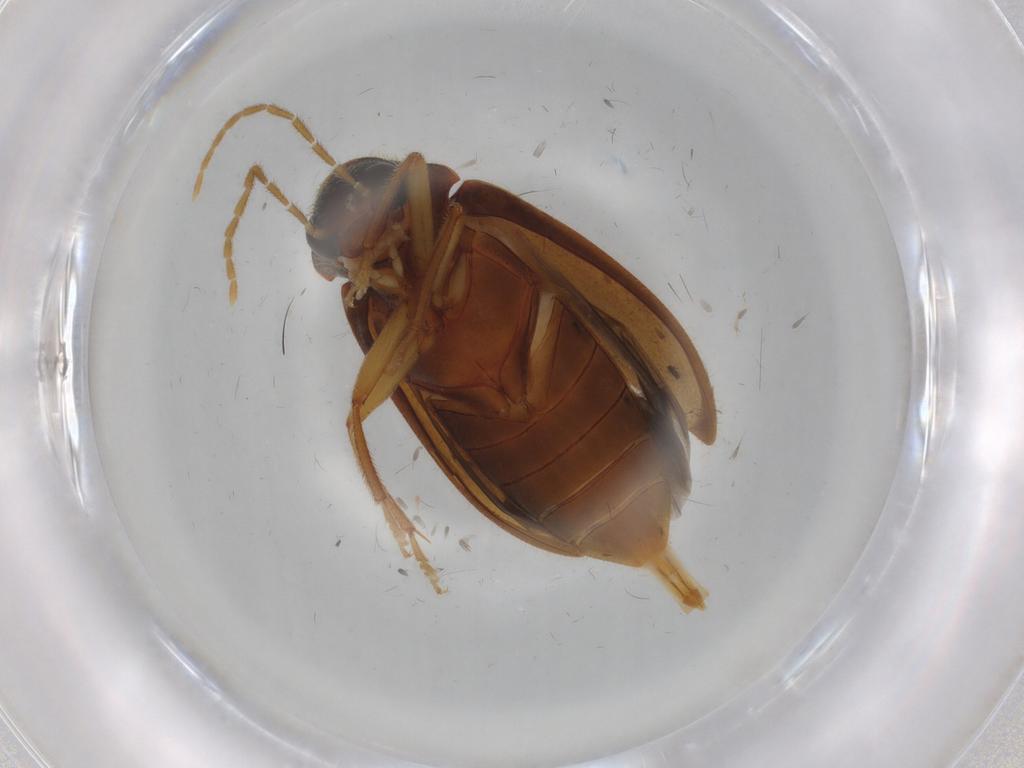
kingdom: Animalia
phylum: Arthropoda
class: Insecta
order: Coleoptera
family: Ptilodactylidae
